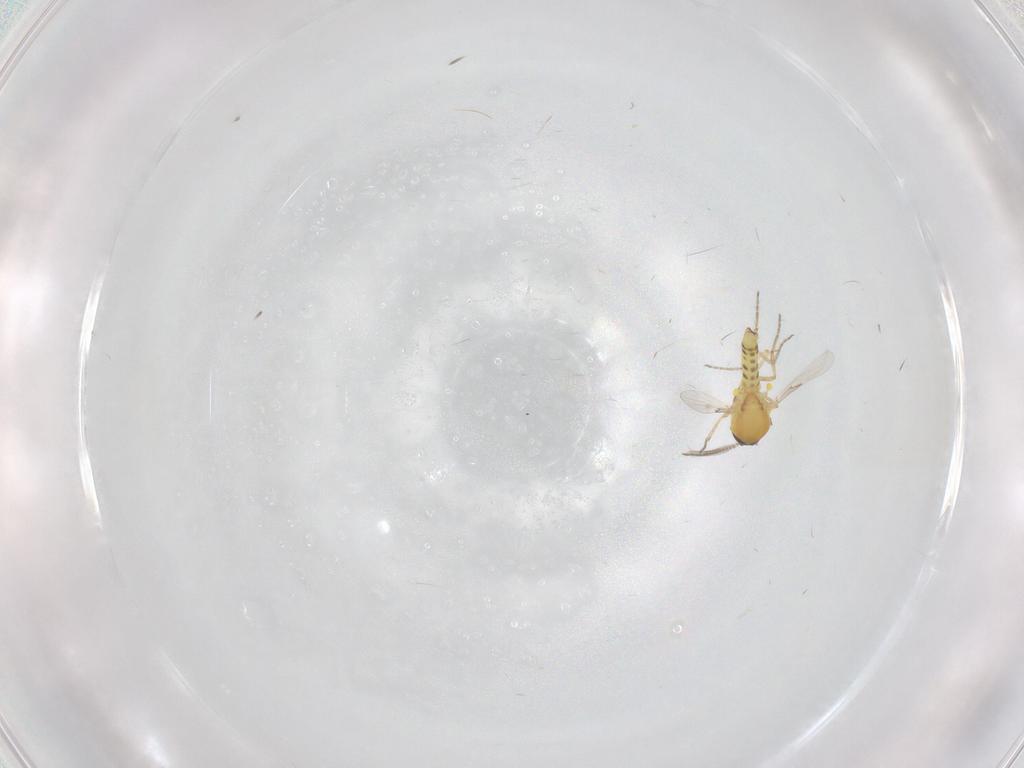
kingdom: Animalia
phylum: Arthropoda
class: Insecta
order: Diptera
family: Ceratopogonidae
